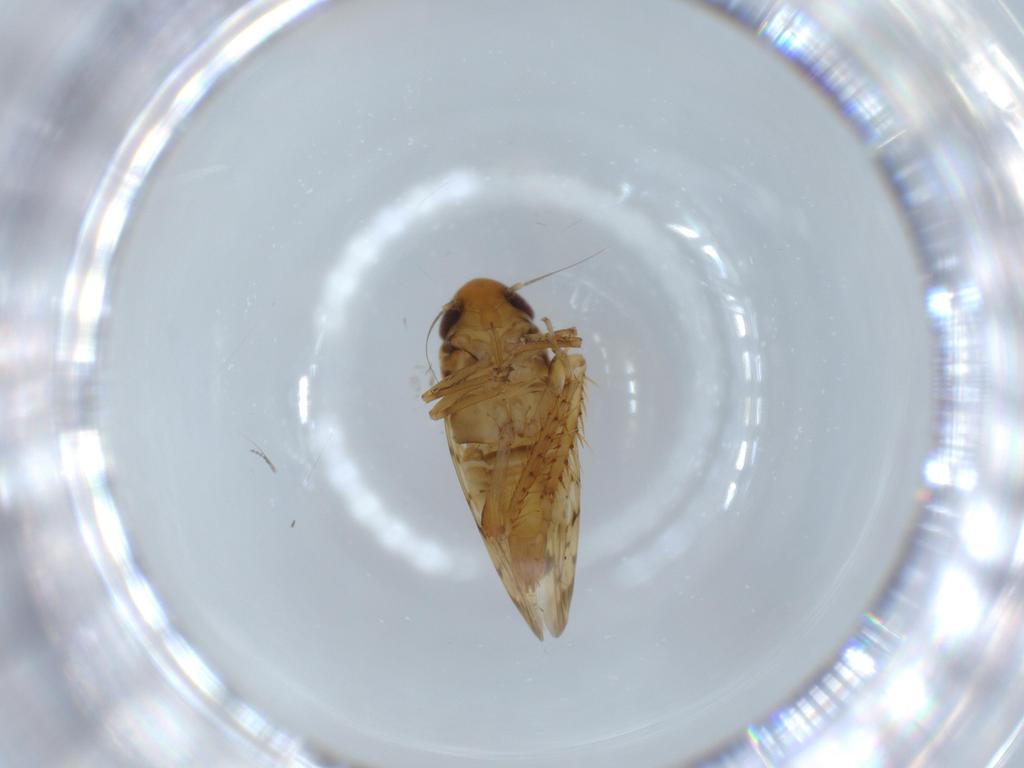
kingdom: Animalia
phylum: Arthropoda
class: Insecta
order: Hemiptera
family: Cicadellidae
